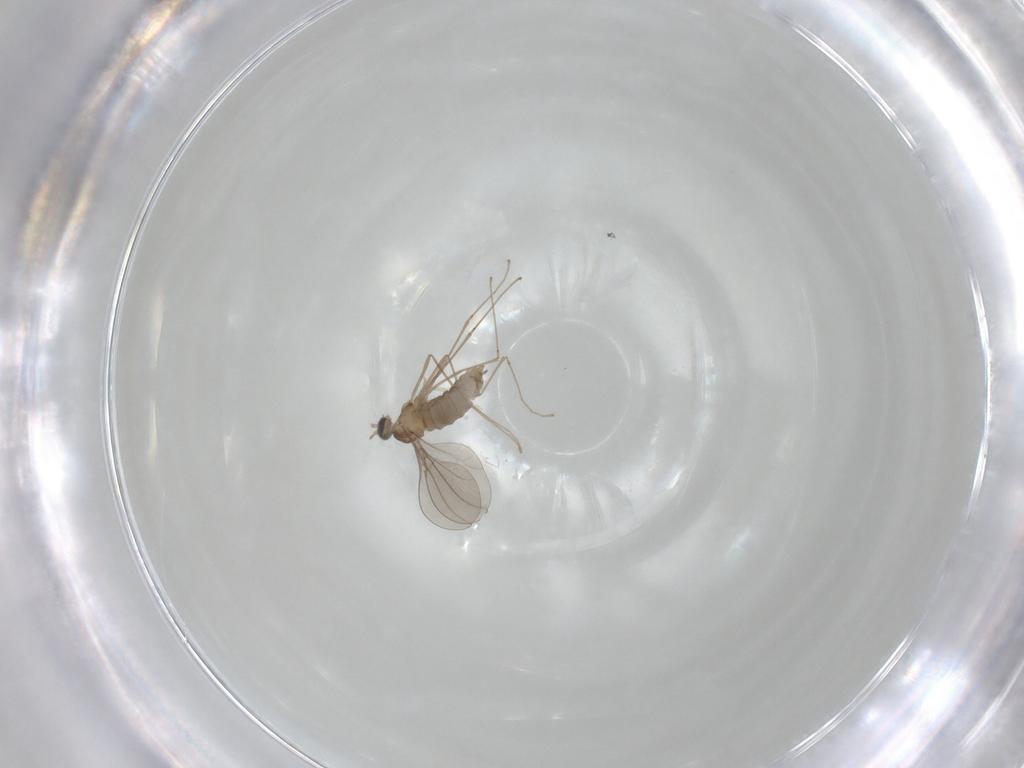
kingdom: Animalia
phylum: Arthropoda
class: Insecta
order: Diptera
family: Cecidomyiidae
